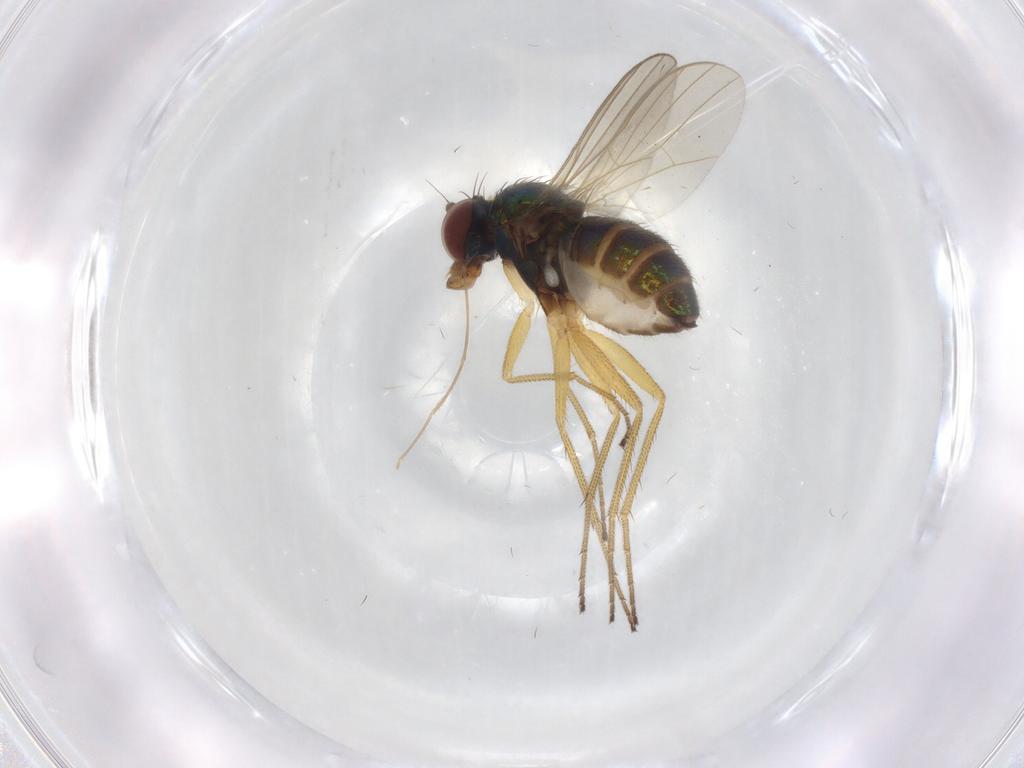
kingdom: Animalia
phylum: Arthropoda
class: Insecta
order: Diptera
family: Dolichopodidae
